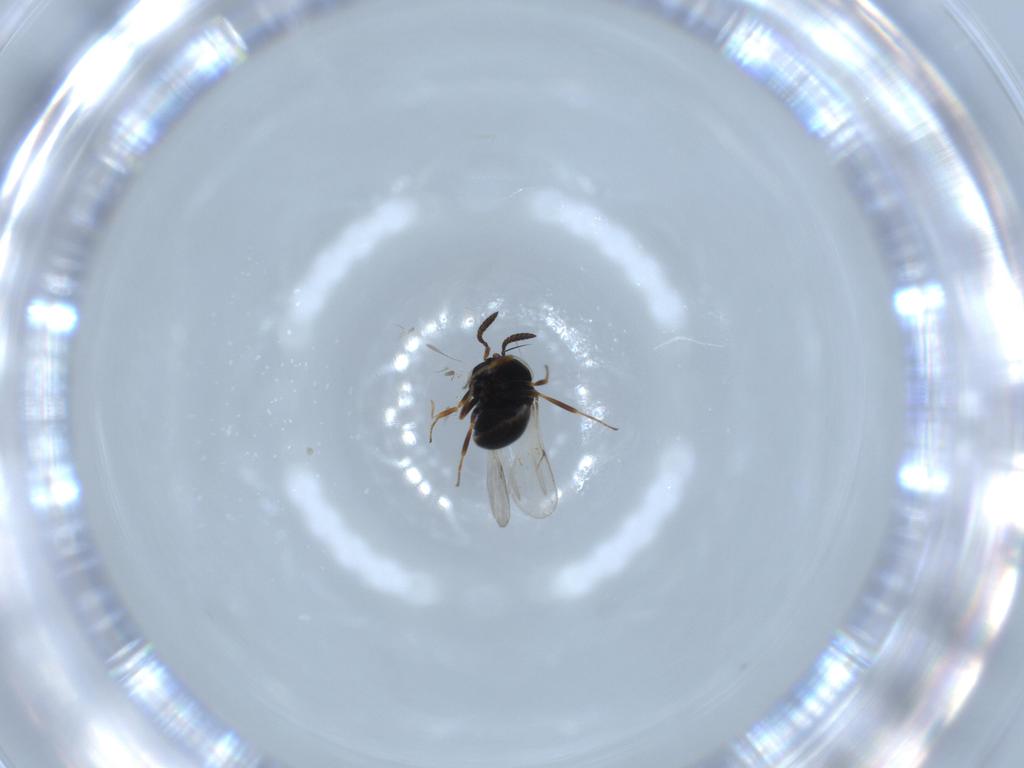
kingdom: Animalia
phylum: Arthropoda
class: Insecta
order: Hymenoptera
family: Scelionidae
